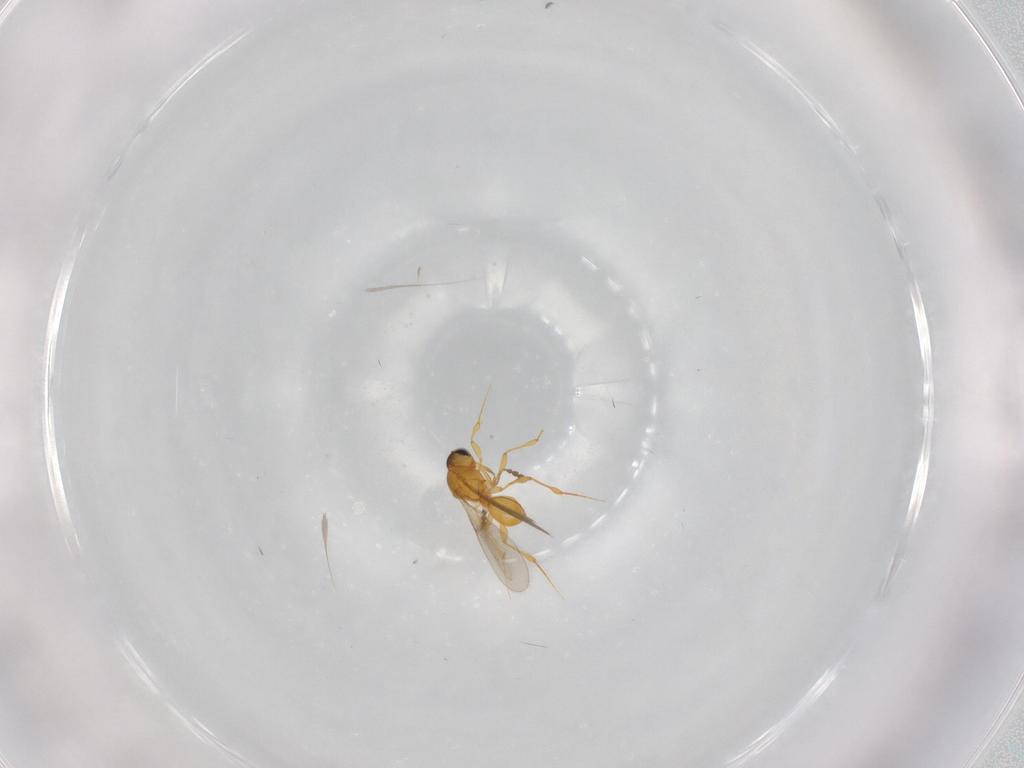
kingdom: Animalia
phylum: Arthropoda
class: Insecta
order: Hymenoptera
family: Platygastridae
